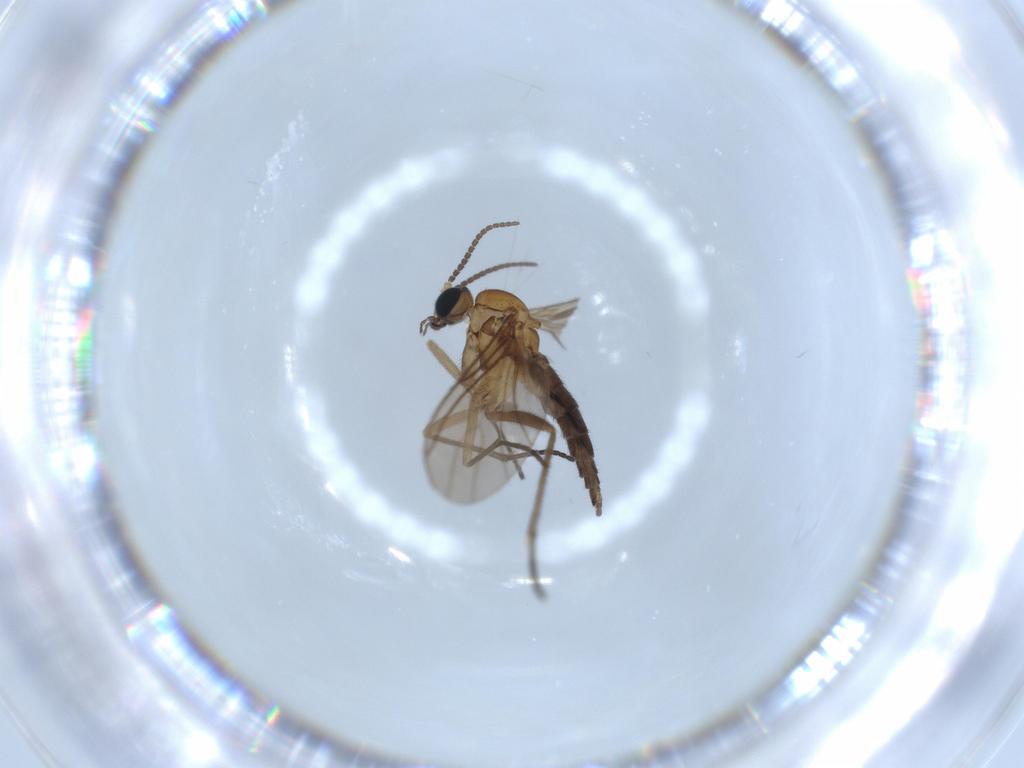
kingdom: Animalia
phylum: Arthropoda
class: Insecta
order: Diptera
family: Sciaridae
